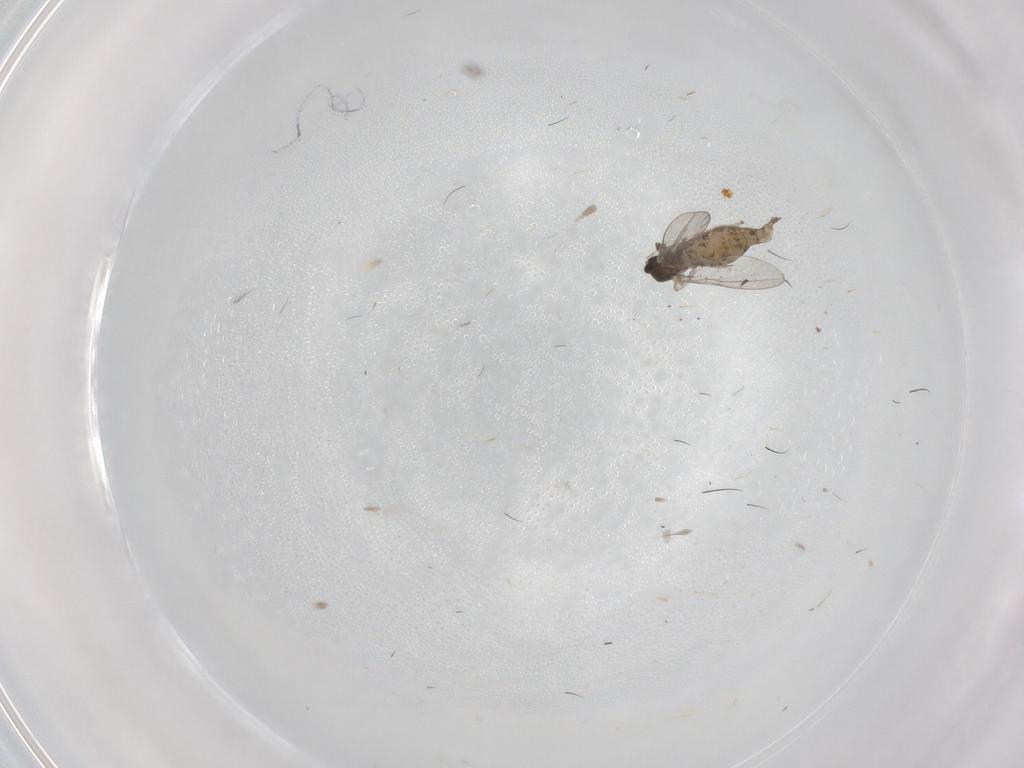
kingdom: Animalia
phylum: Arthropoda
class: Insecta
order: Diptera
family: Cecidomyiidae
